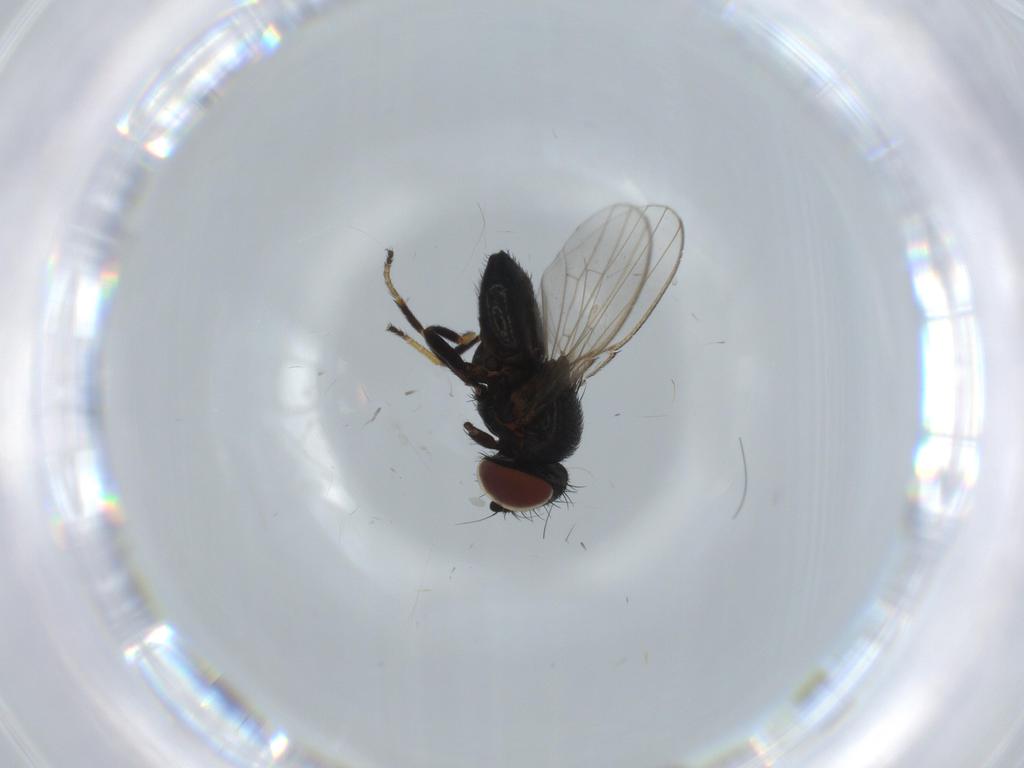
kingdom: Animalia
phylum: Arthropoda
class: Insecta
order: Diptera
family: Milichiidae
